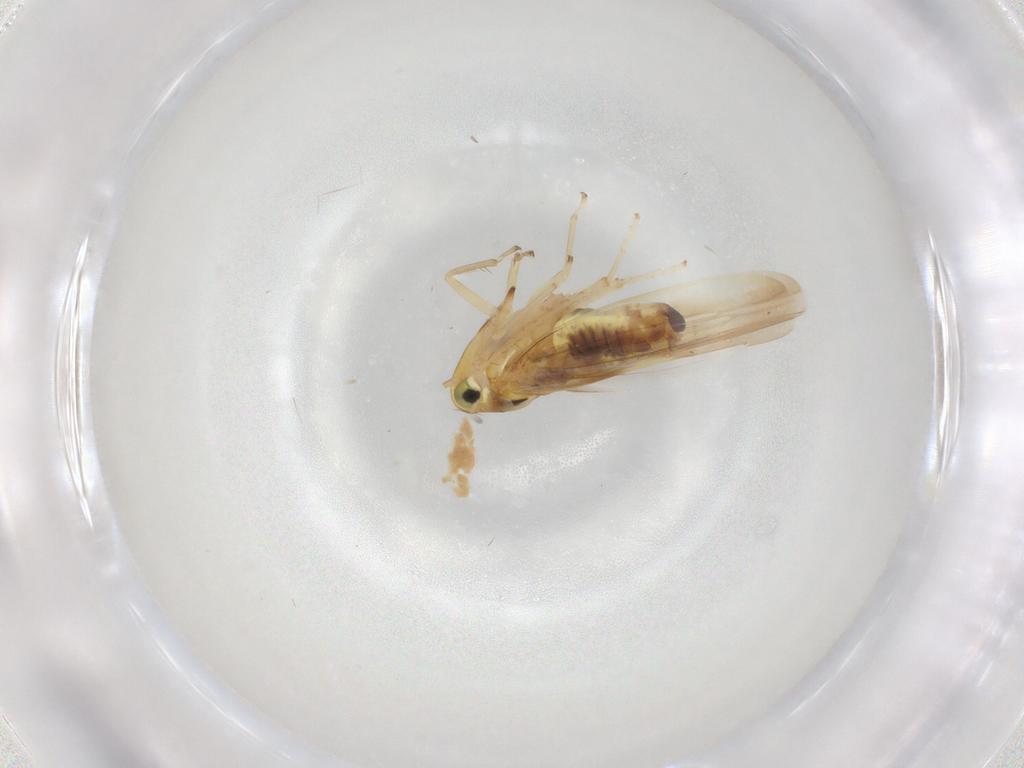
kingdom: Animalia
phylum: Arthropoda
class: Insecta
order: Hemiptera
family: Cicadellidae
